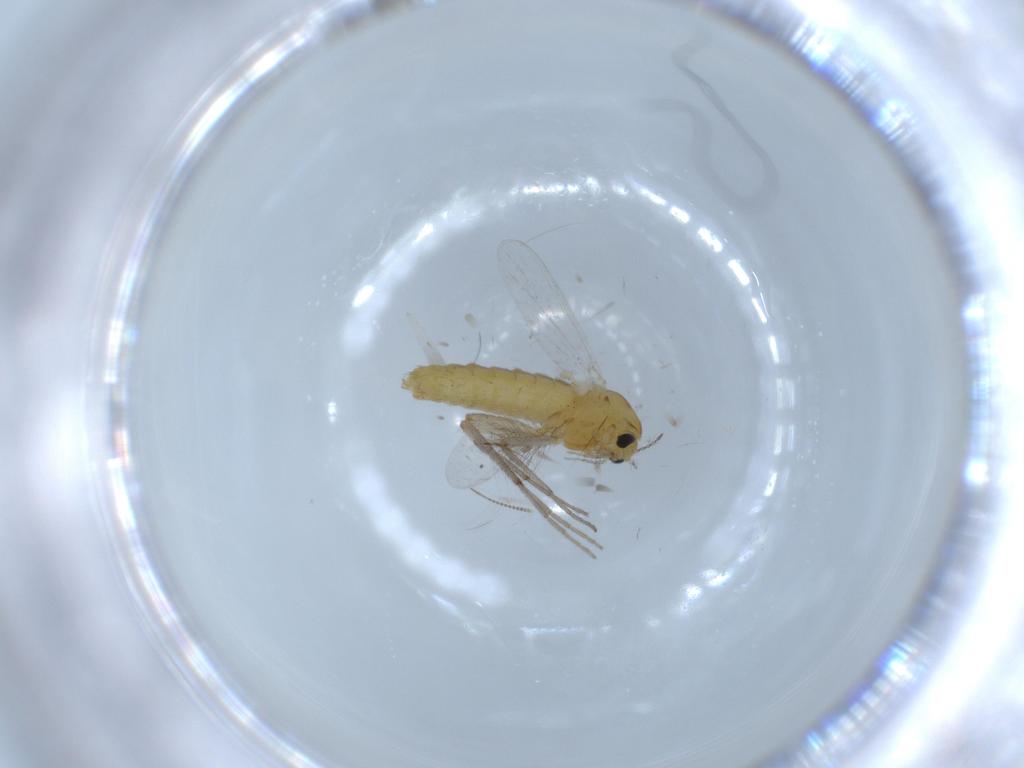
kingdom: Animalia
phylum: Arthropoda
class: Insecta
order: Diptera
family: Chironomidae
